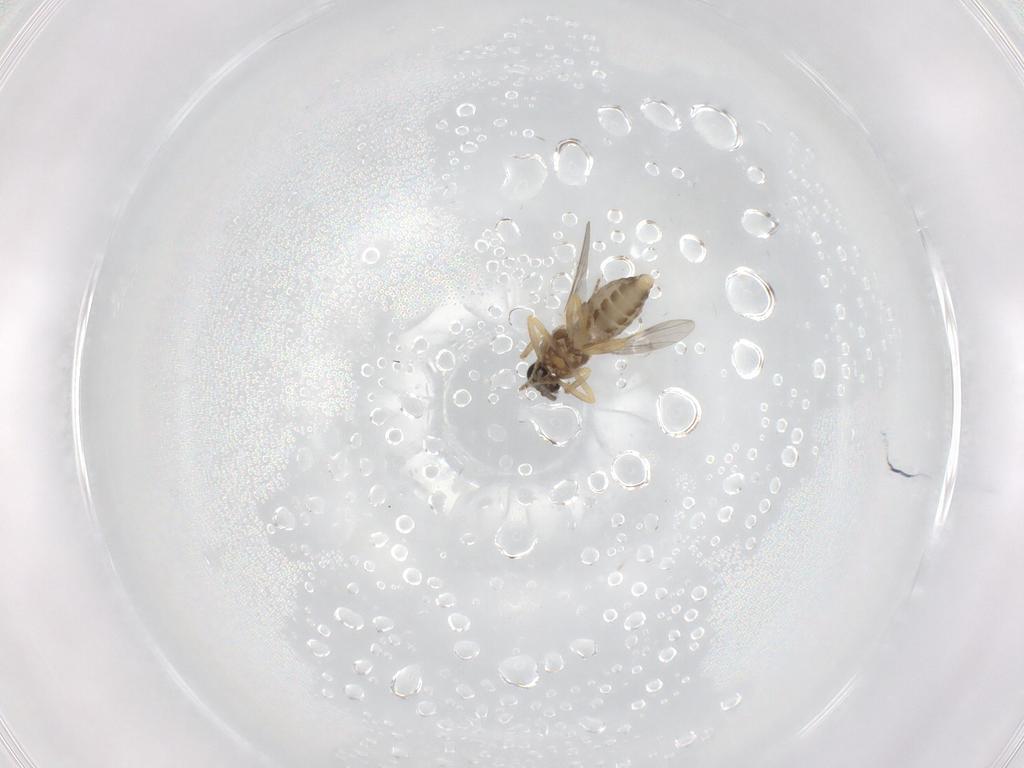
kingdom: Animalia
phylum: Arthropoda
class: Insecta
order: Diptera
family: Ceratopogonidae
